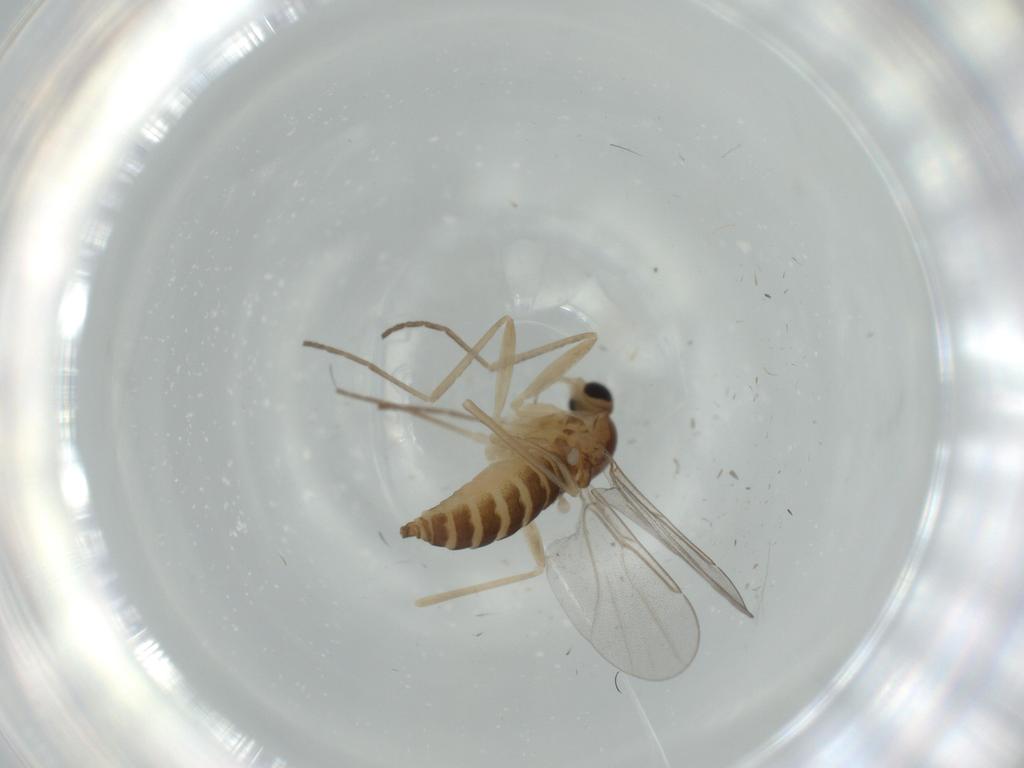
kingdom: Animalia
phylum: Arthropoda
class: Insecta
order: Diptera
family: Cecidomyiidae
